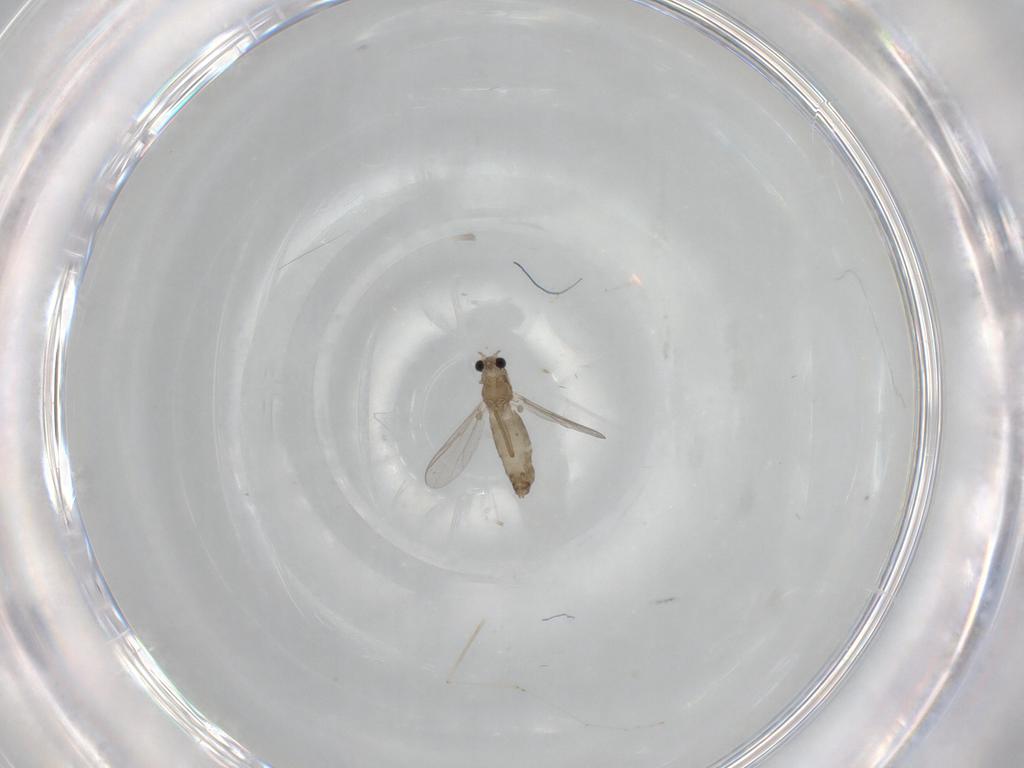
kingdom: Animalia
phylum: Arthropoda
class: Insecta
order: Diptera
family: Chironomidae
